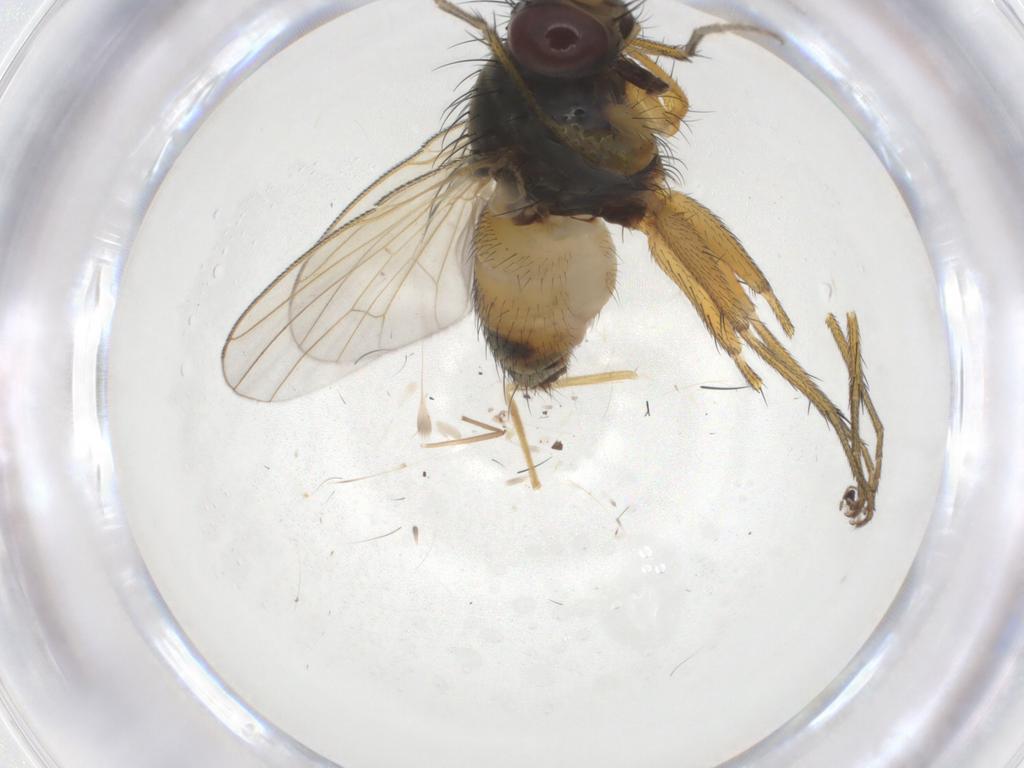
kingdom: Animalia
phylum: Arthropoda
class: Insecta
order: Diptera
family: Muscidae
